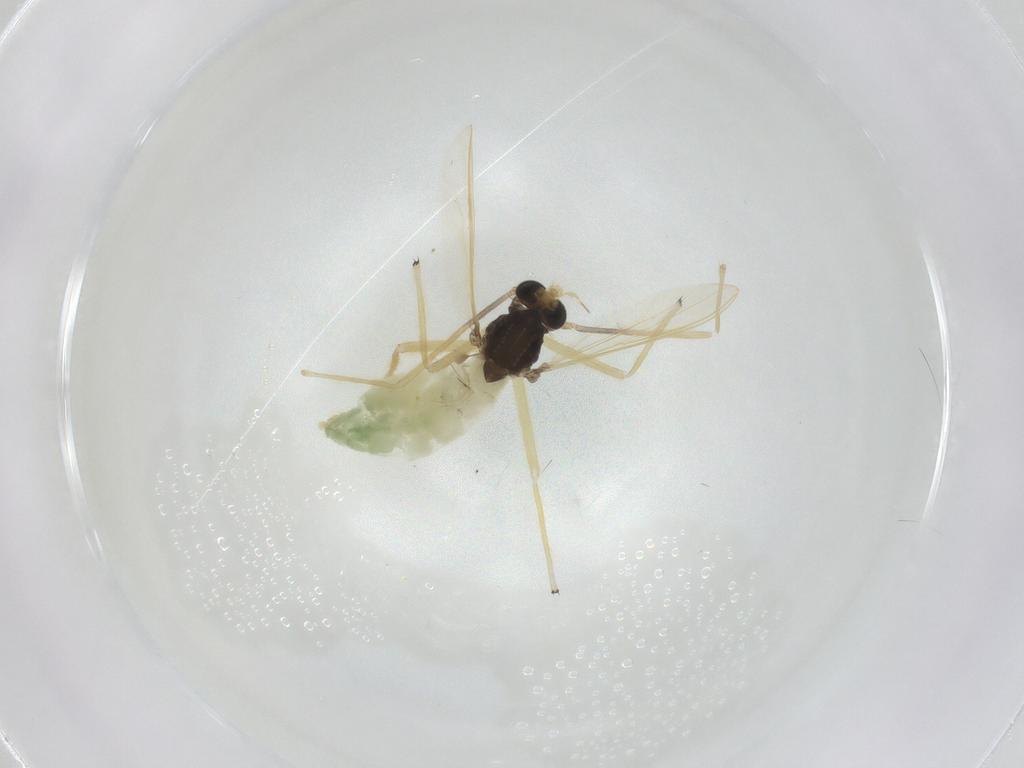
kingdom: Animalia
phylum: Arthropoda
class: Insecta
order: Diptera
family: Chironomidae
